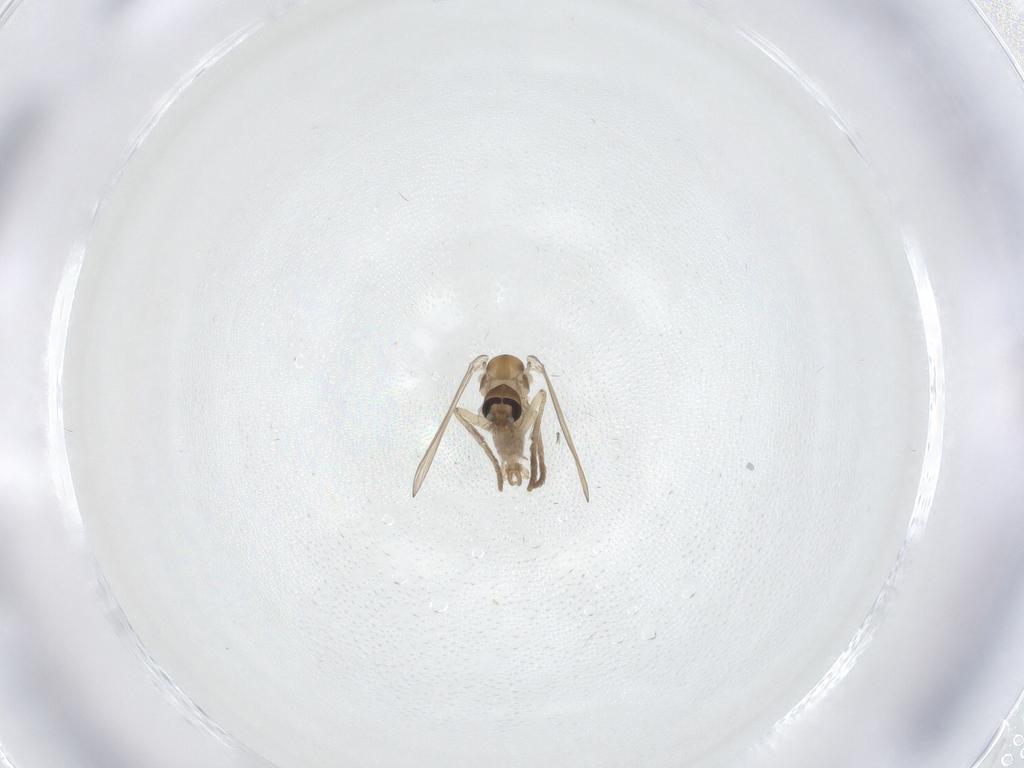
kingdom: Animalia
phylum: Arthropoda
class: Insecta
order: Diptera
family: Psychodidae
